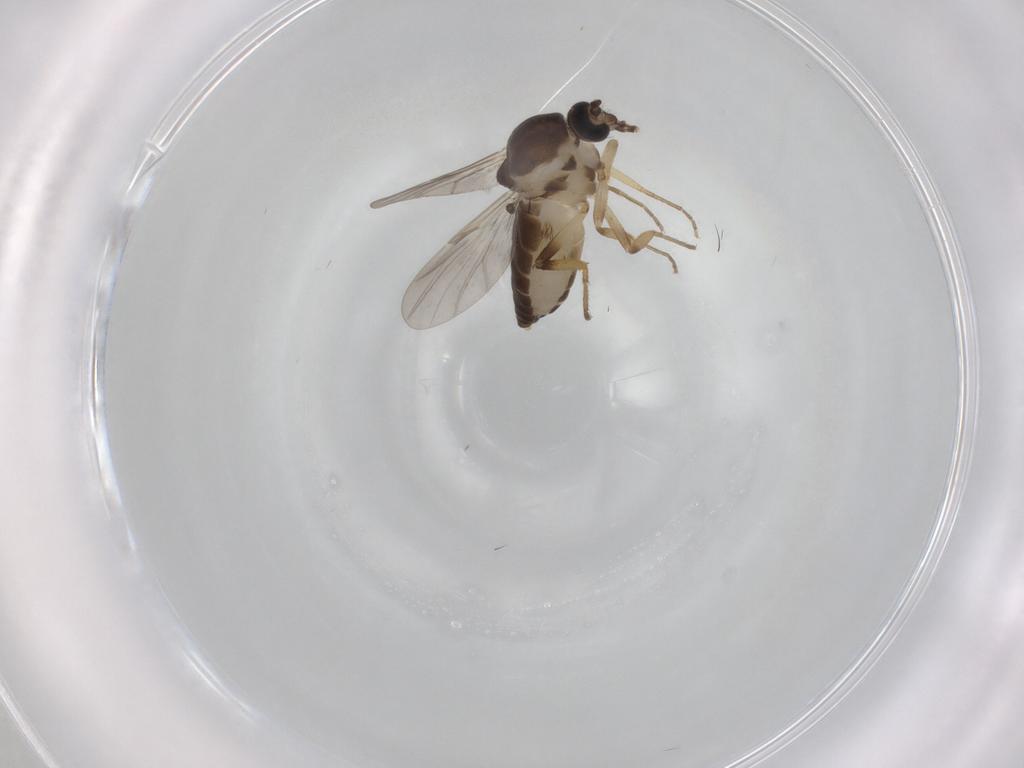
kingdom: Animalia
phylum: Arthropoda
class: Insecta
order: Diptera
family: Ceratopogonidae
